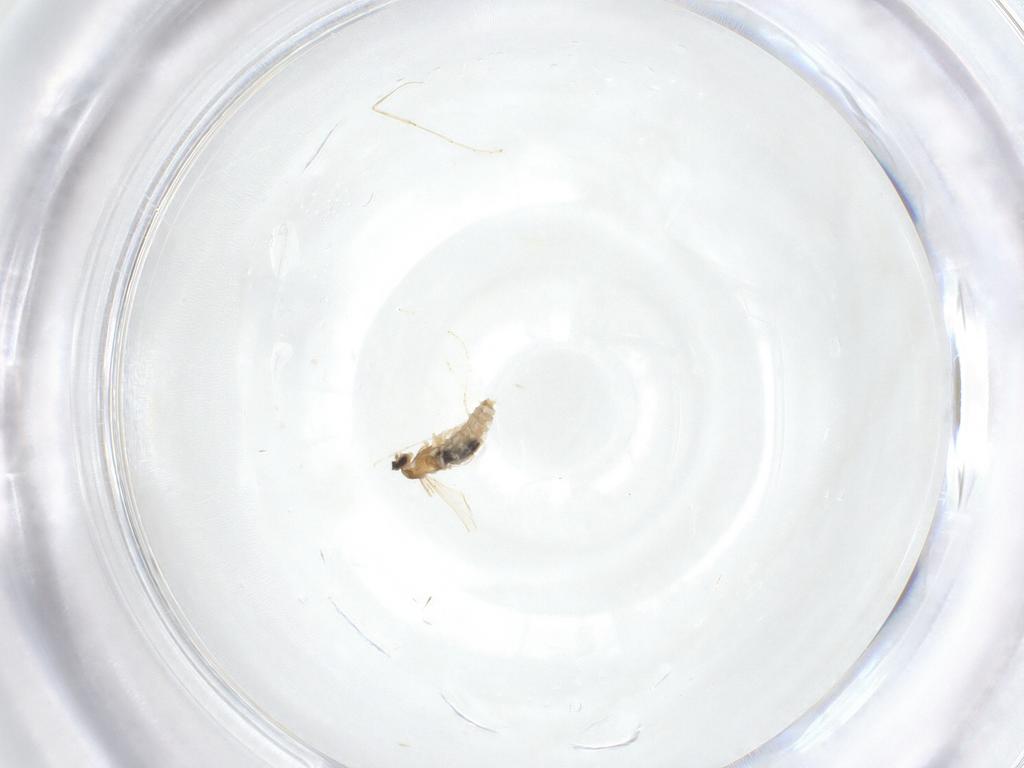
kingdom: Animalia
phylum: Arthropoda
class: Insecta
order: Diptera
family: Cecidomyiidae
